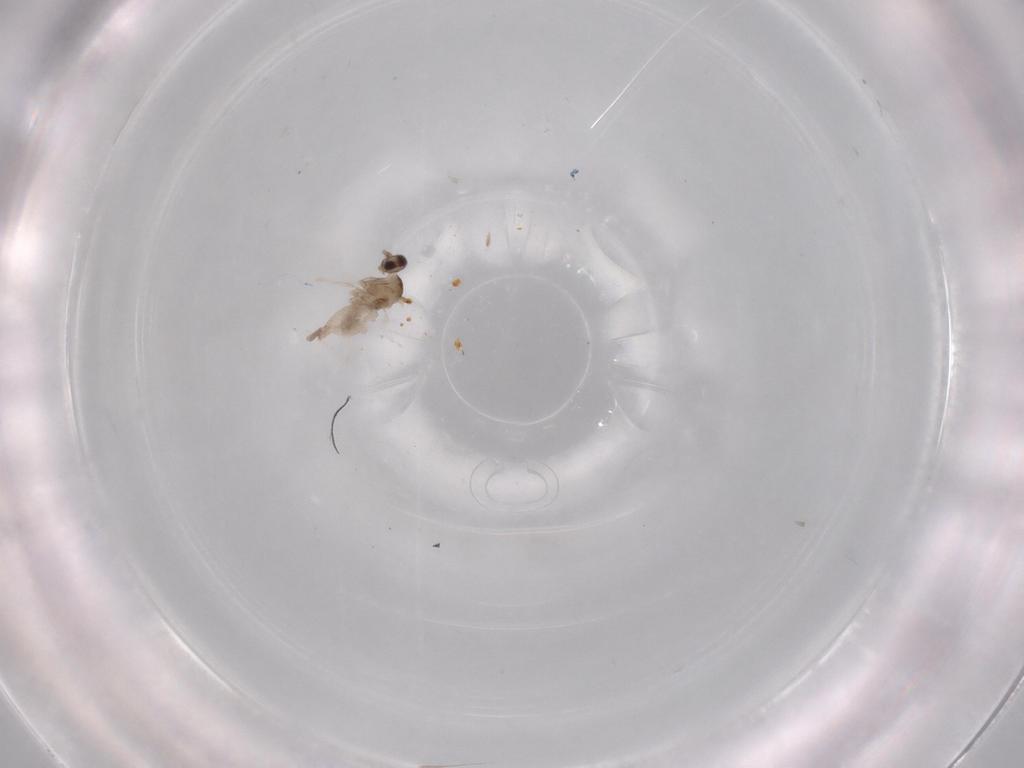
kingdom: Animalia
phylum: Arthropoda
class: Insecta
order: Diptera
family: Cecidomyiidae
